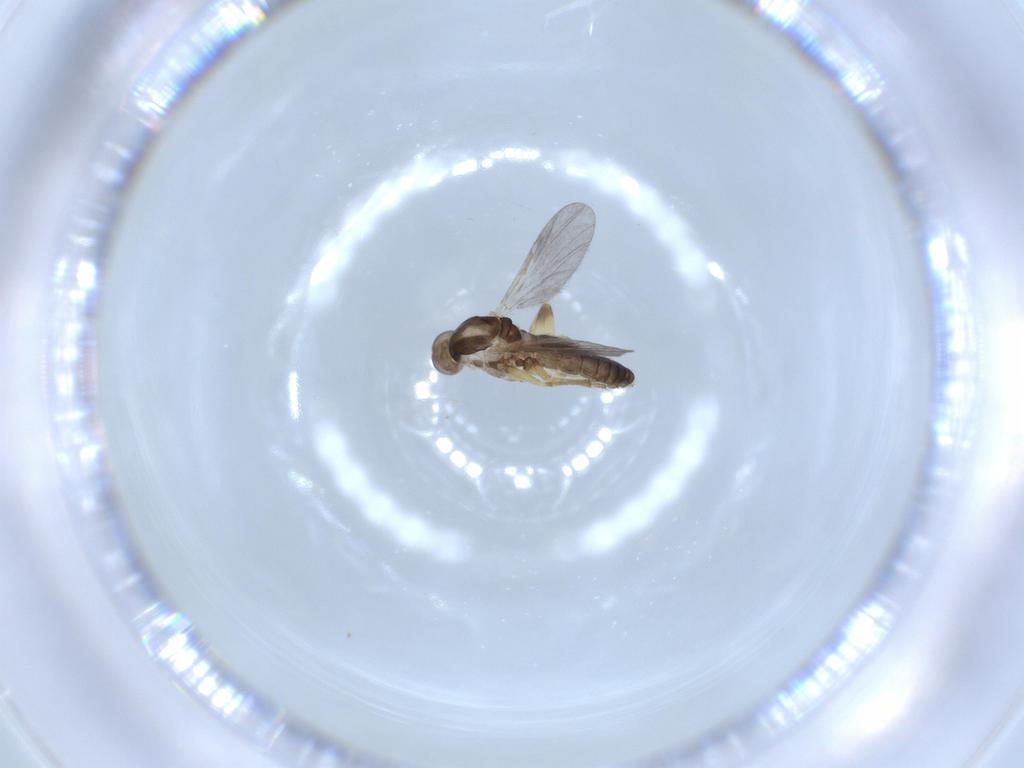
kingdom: Animalia
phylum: Arthropoda
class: Insecta
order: Diptera
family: Ceratopogonidae
